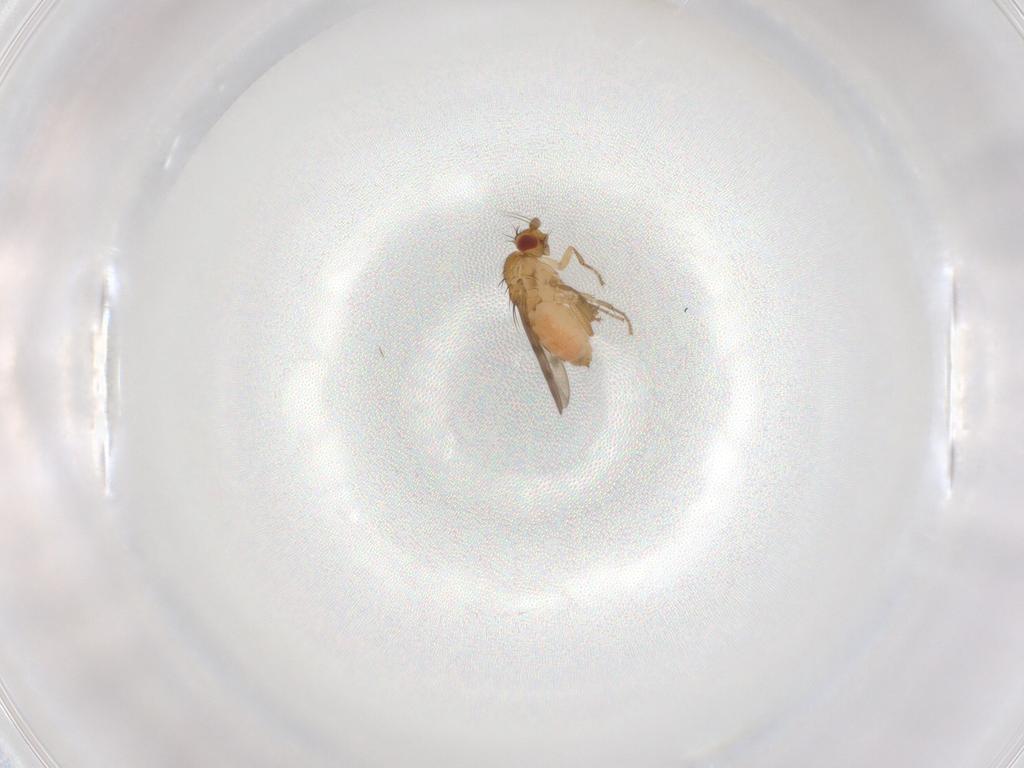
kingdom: Animalia
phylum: Arthropoda
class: Insecta
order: Diptera
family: Sphaeroceridae
